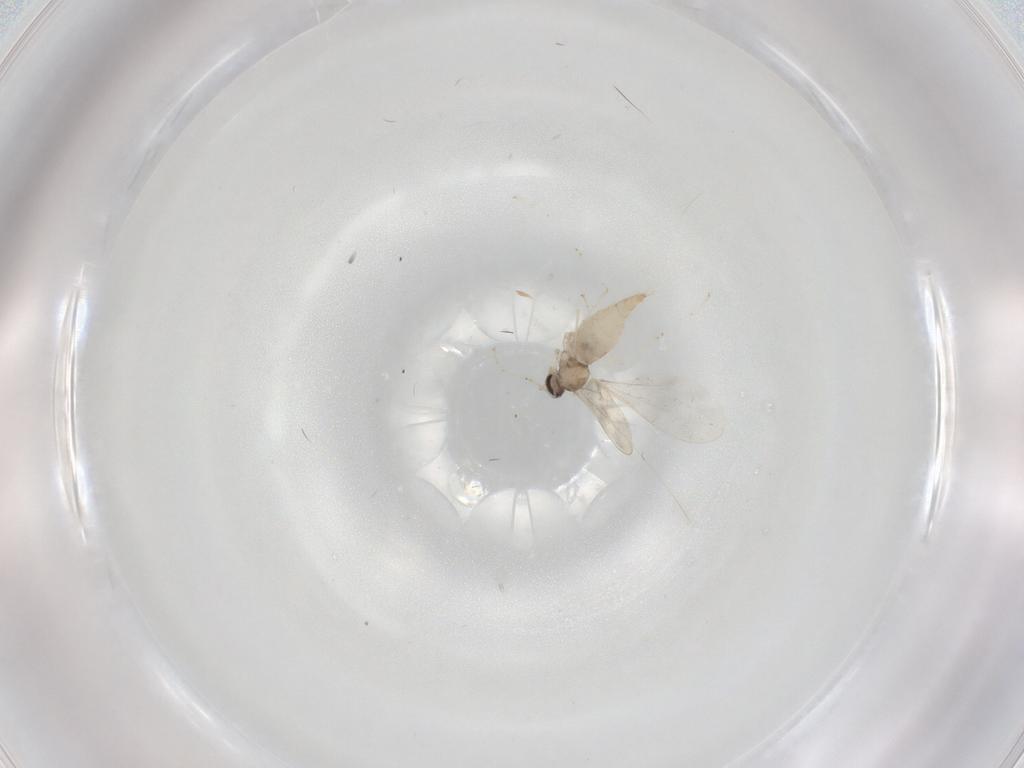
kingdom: Animalia
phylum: Arthropoda
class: Insecta
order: Diptera
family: Cecidomyiidae
